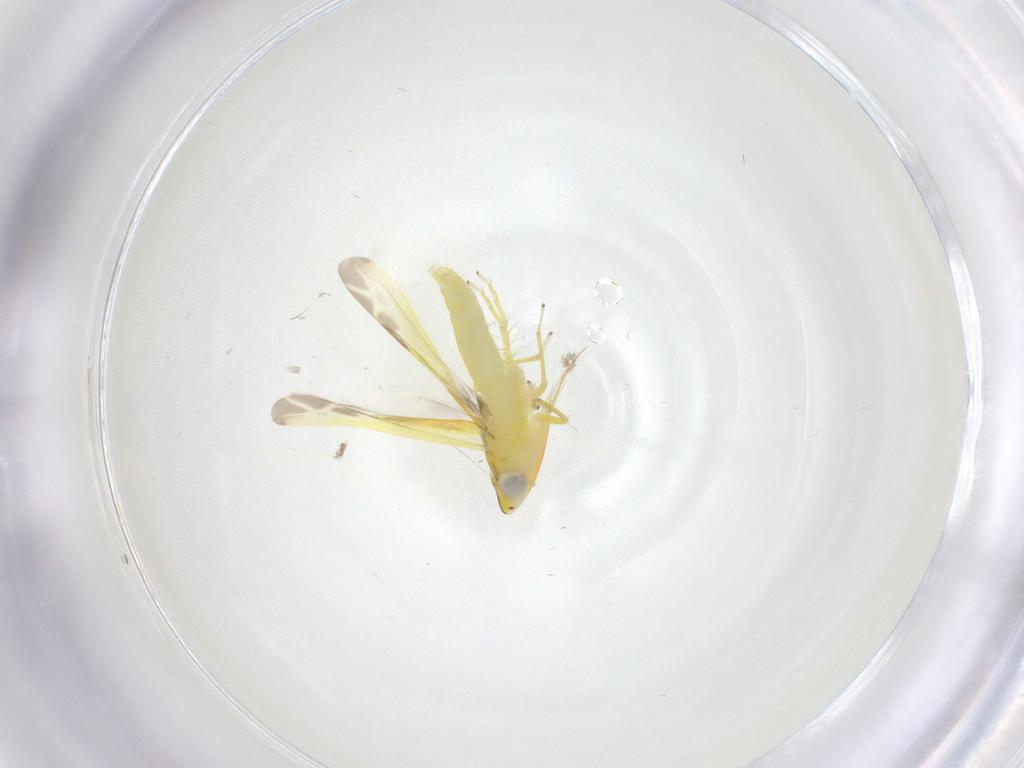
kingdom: Animalia
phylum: Arthropoda
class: Insecta
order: Diptera
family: Cecidomyiidae
